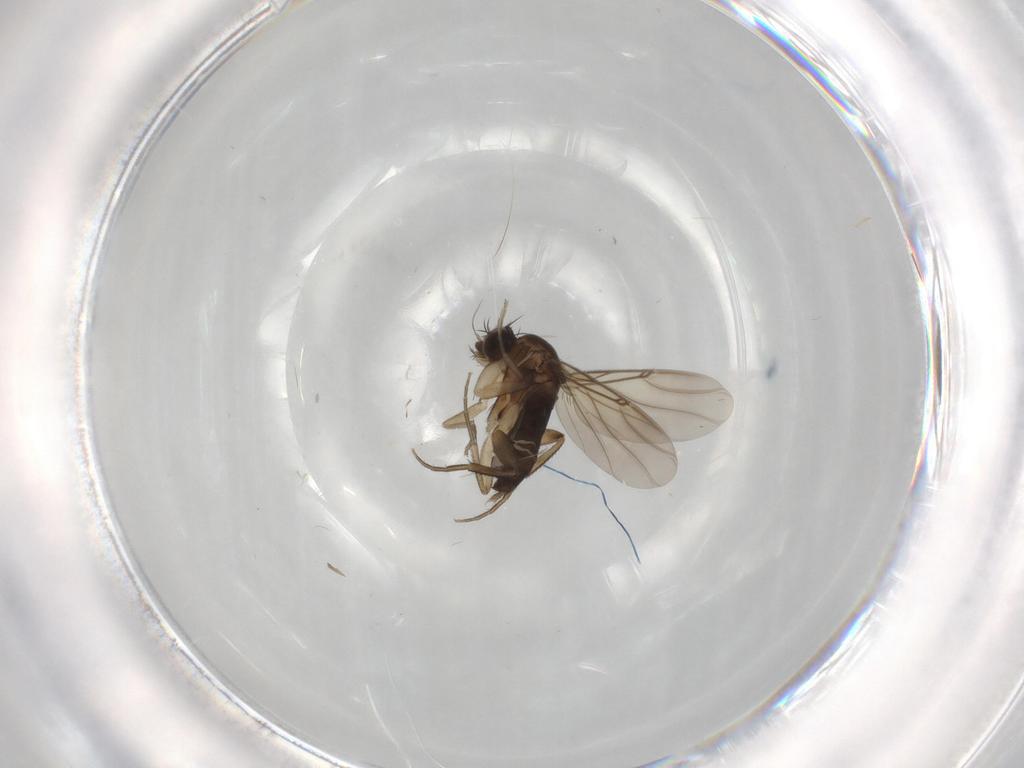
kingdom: Animalia
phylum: Arthropoda
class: Insecta
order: Diptera
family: Phoridae
